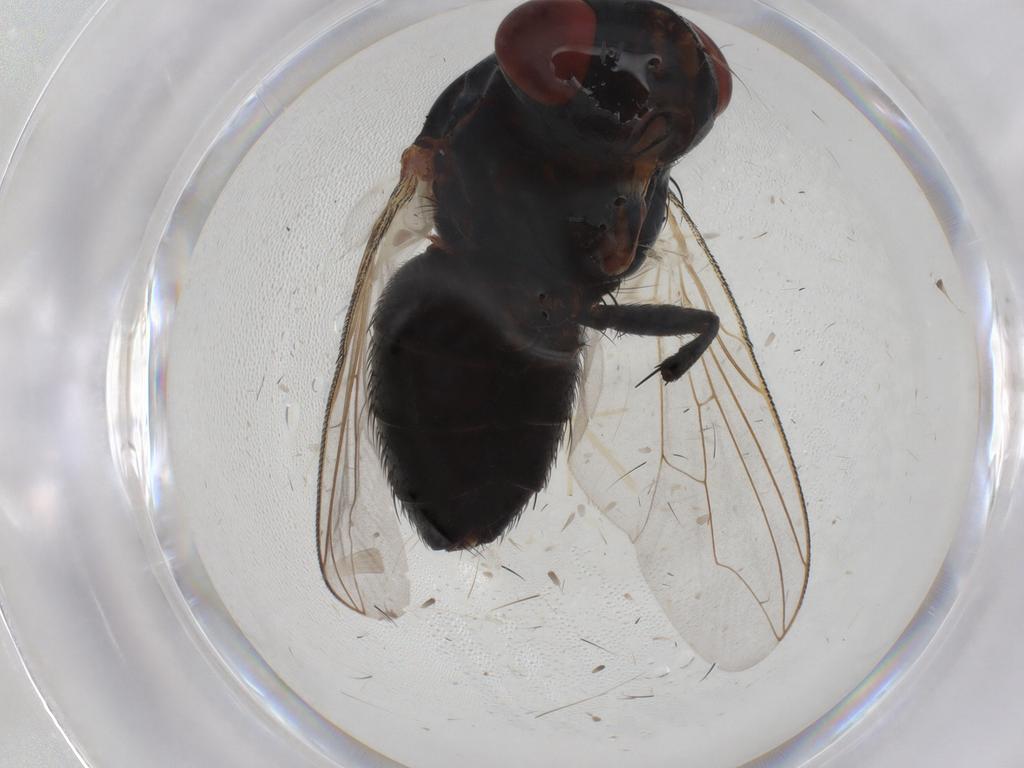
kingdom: Animalia
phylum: Arthropoda
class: Insecta
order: Diptera
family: Sarcophagidae
